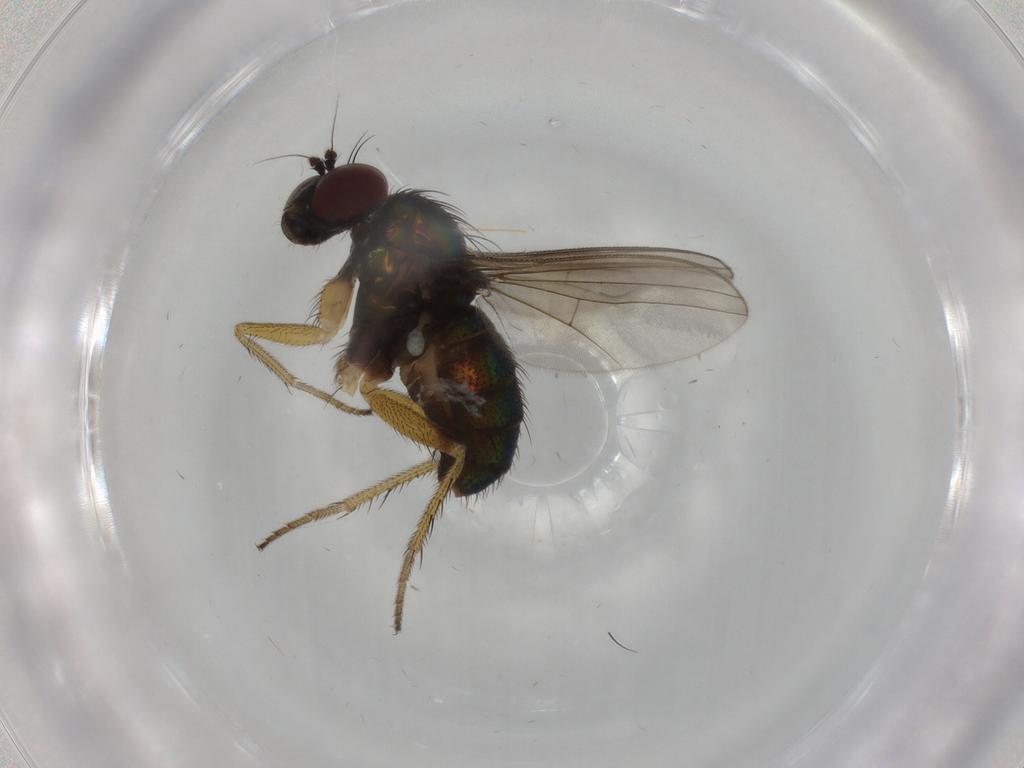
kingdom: Animalia
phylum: Arthropoda
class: Insecta
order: Diptera
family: Dolichopodidae
